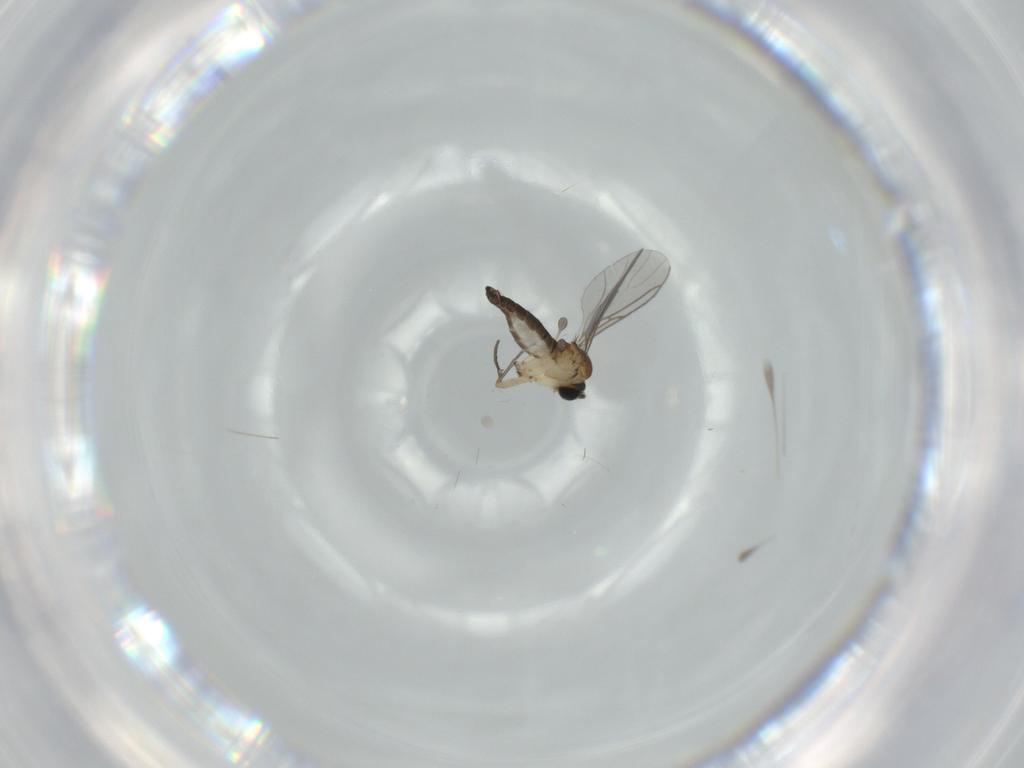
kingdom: Animalia
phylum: Arthropoda
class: Insecta
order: Diptera
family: Sciaridae
